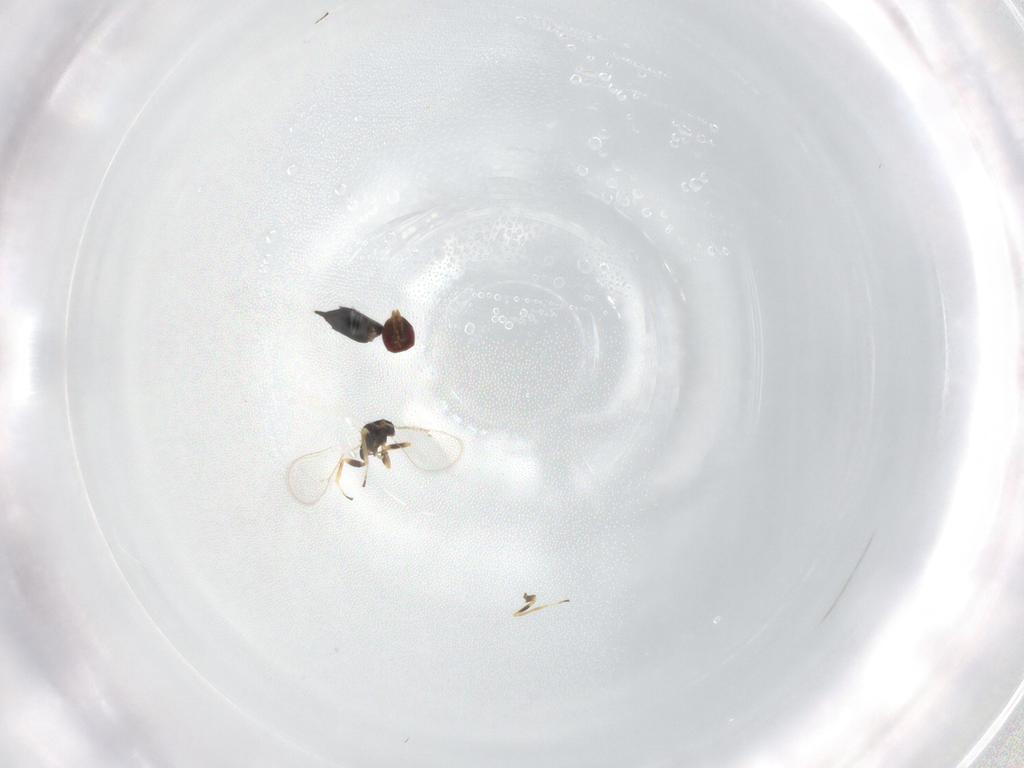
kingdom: Animalia
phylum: Arthropoda
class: Insecta
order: Hymenoptera
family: Eulophidae
